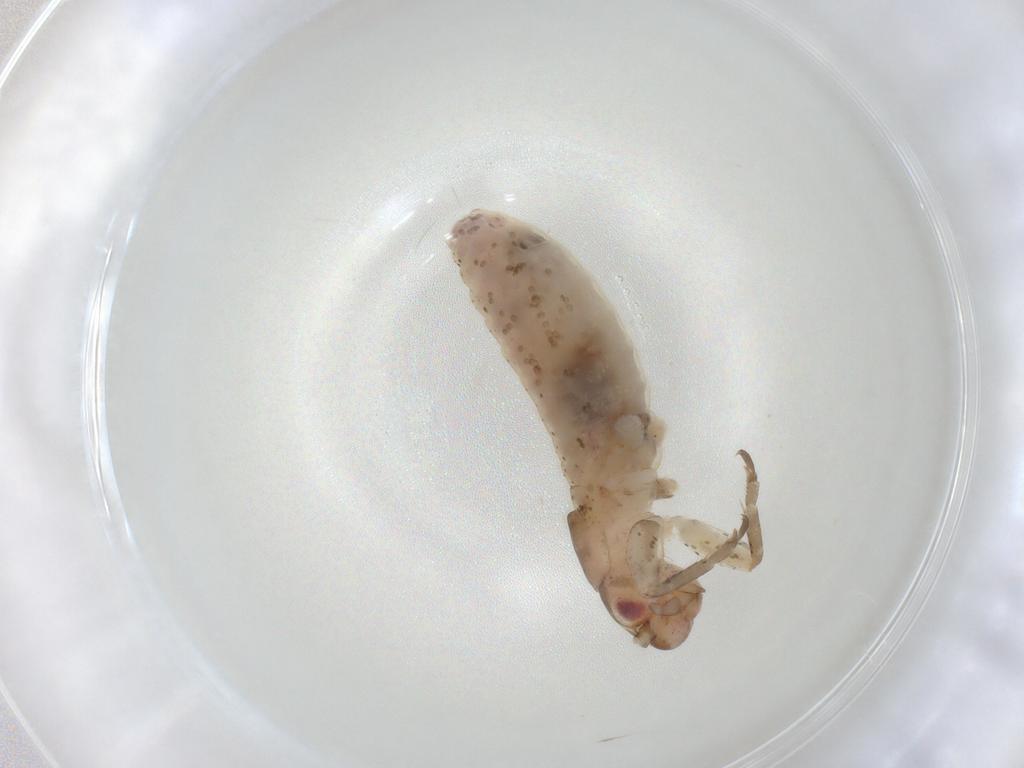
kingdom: Animalia
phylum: Arthropoda
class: Insecta
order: Orthoptera
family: Mogoplistidae
